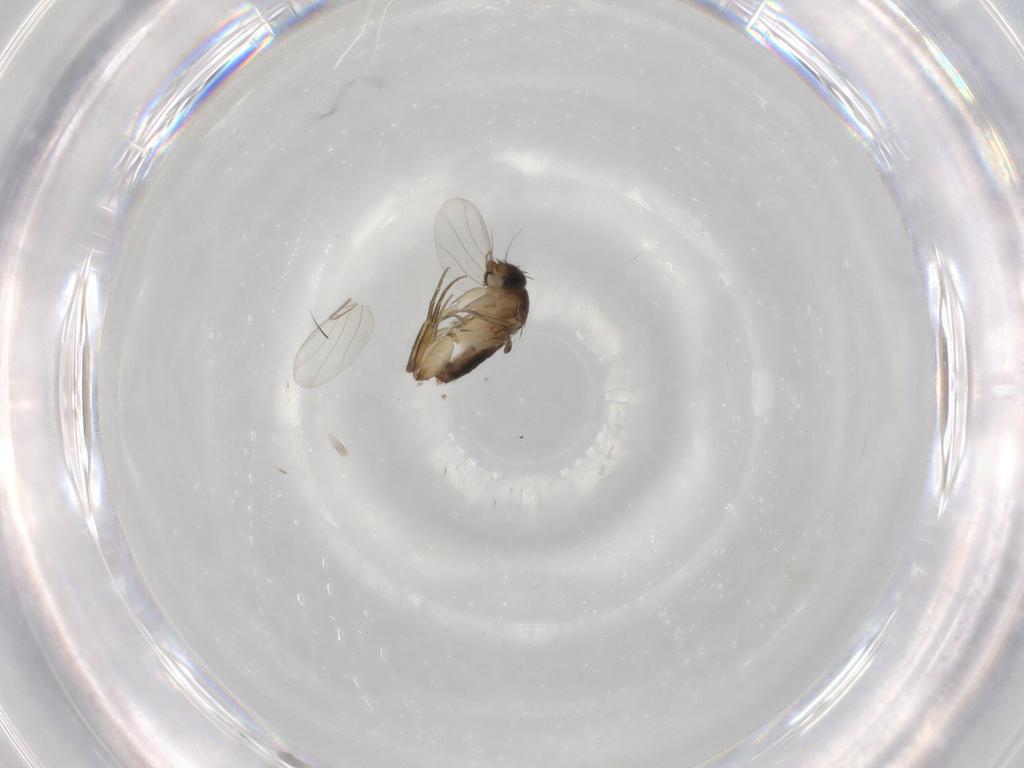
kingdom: Animalia
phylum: Arthropoda
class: Insecta
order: Diptera
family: Phoridae
